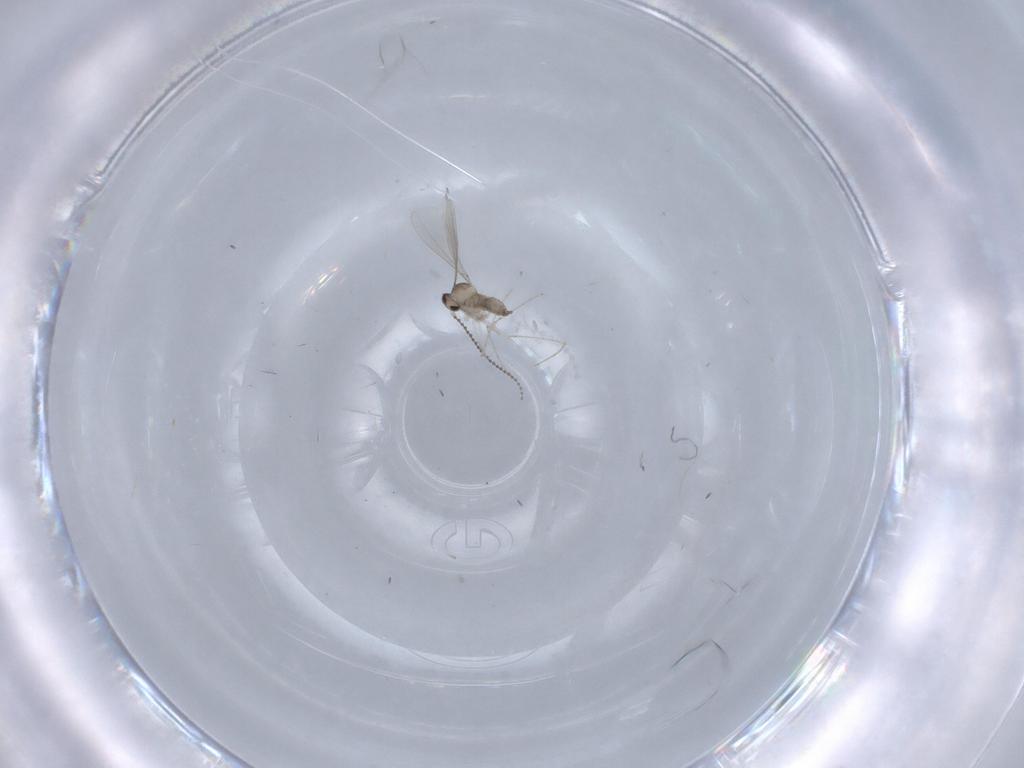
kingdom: Animalia
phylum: Arthropoda
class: Insecta
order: Diptera
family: Cecidomyiidae
